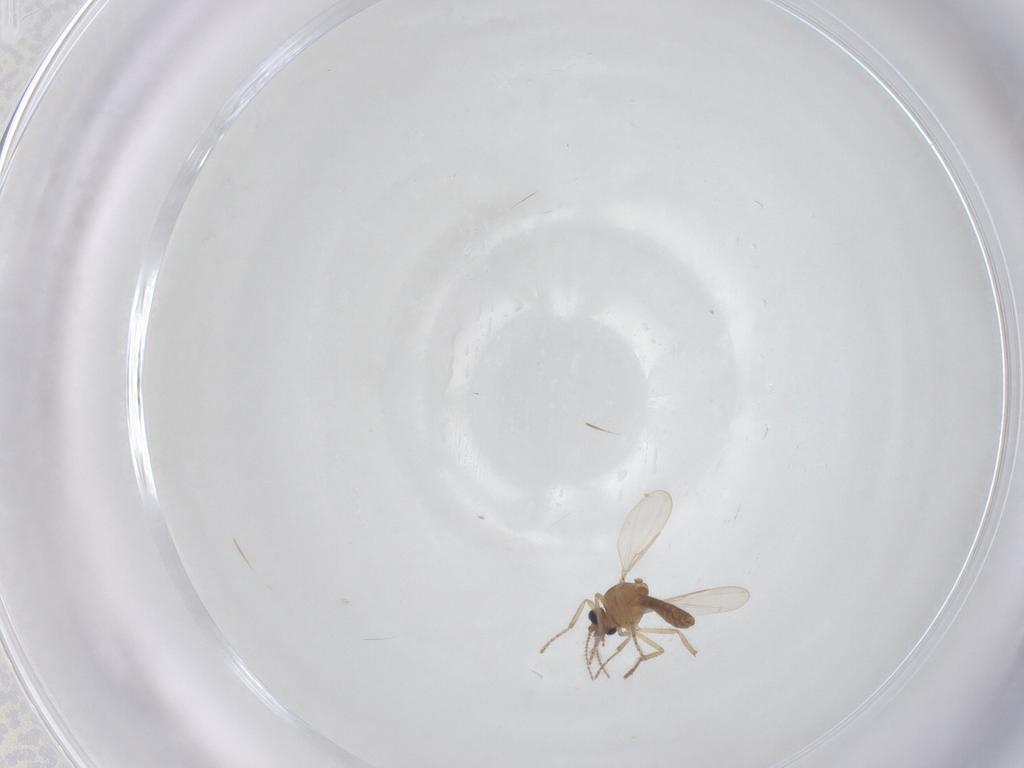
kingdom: Animalia
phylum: Arthropoda
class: Insecta
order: Diptera
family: Ceratopogonidae
